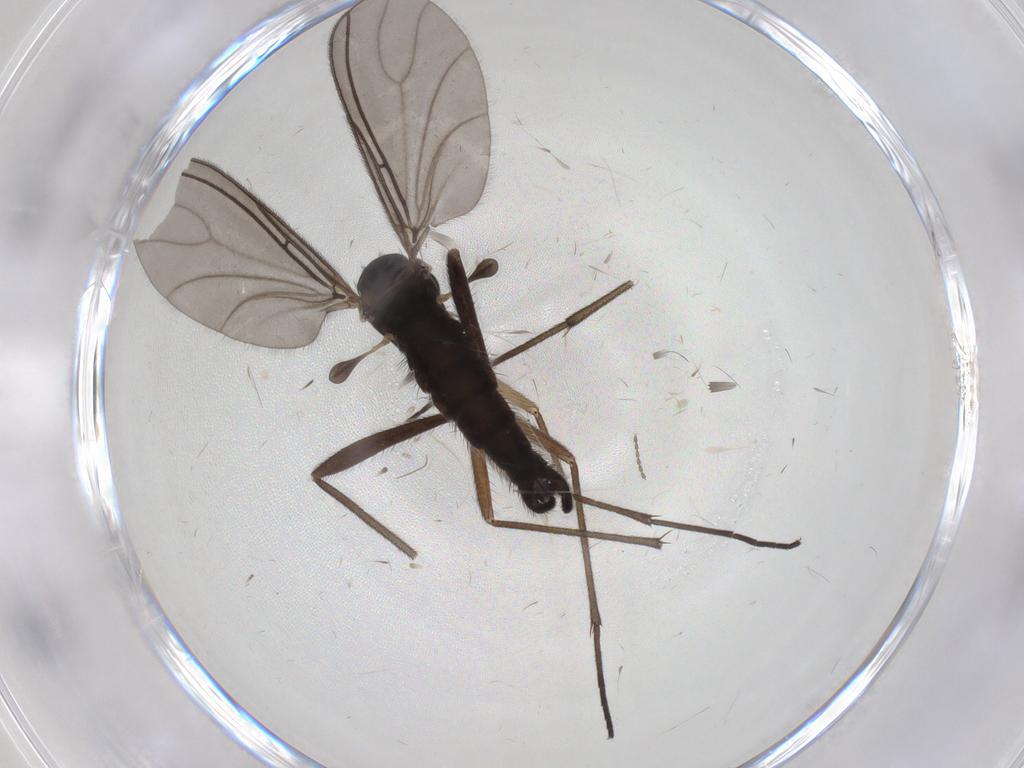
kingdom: Animalia
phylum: Arthropoda
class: Insecta
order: Diptera
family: Sciaridae
